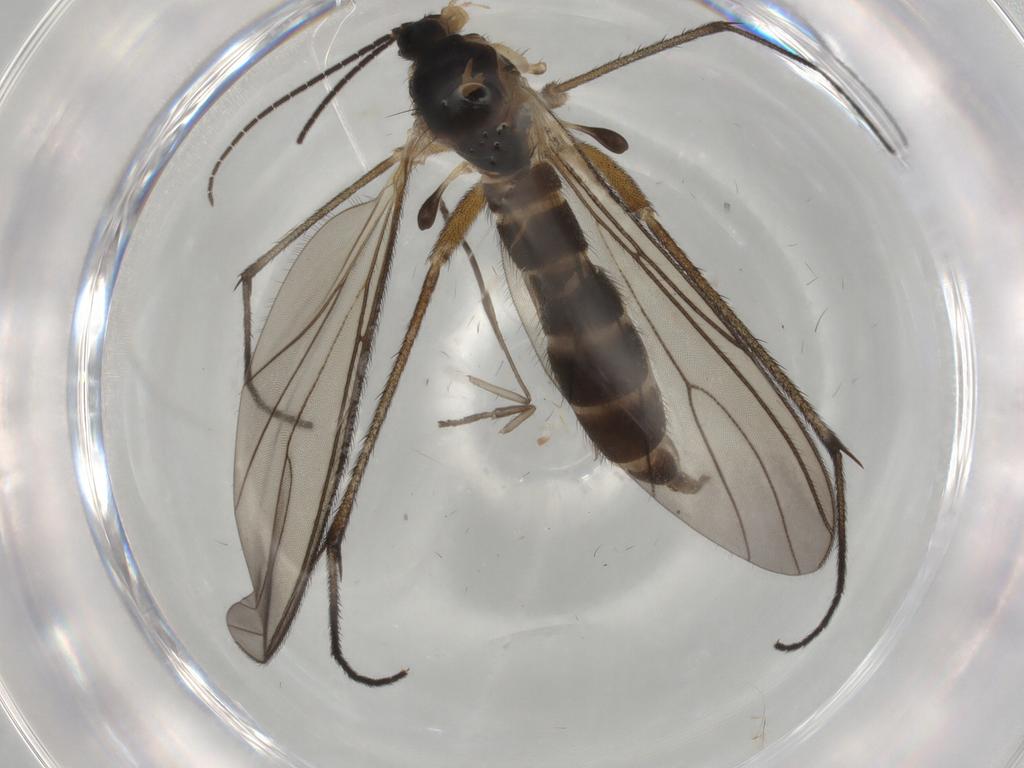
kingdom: Animalia
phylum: Arthropoda
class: Insecta
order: Diptera
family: Sciaridae
